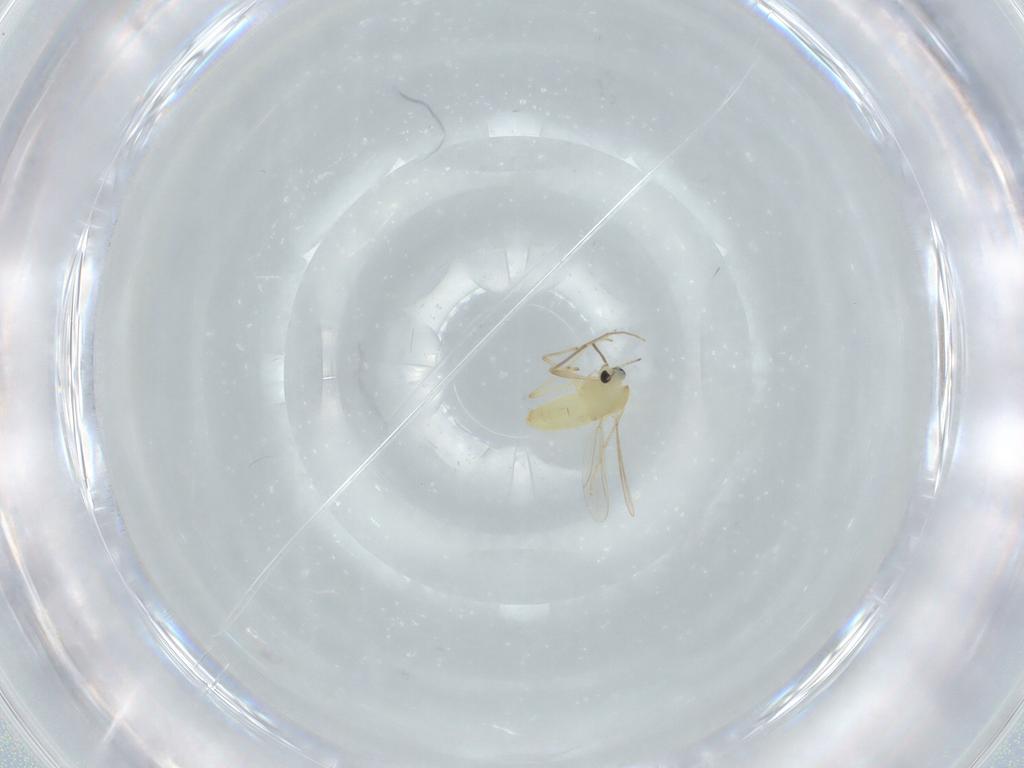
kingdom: Animalia
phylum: Arthropoda
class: Insecta
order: Diptera
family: Chironomidae
